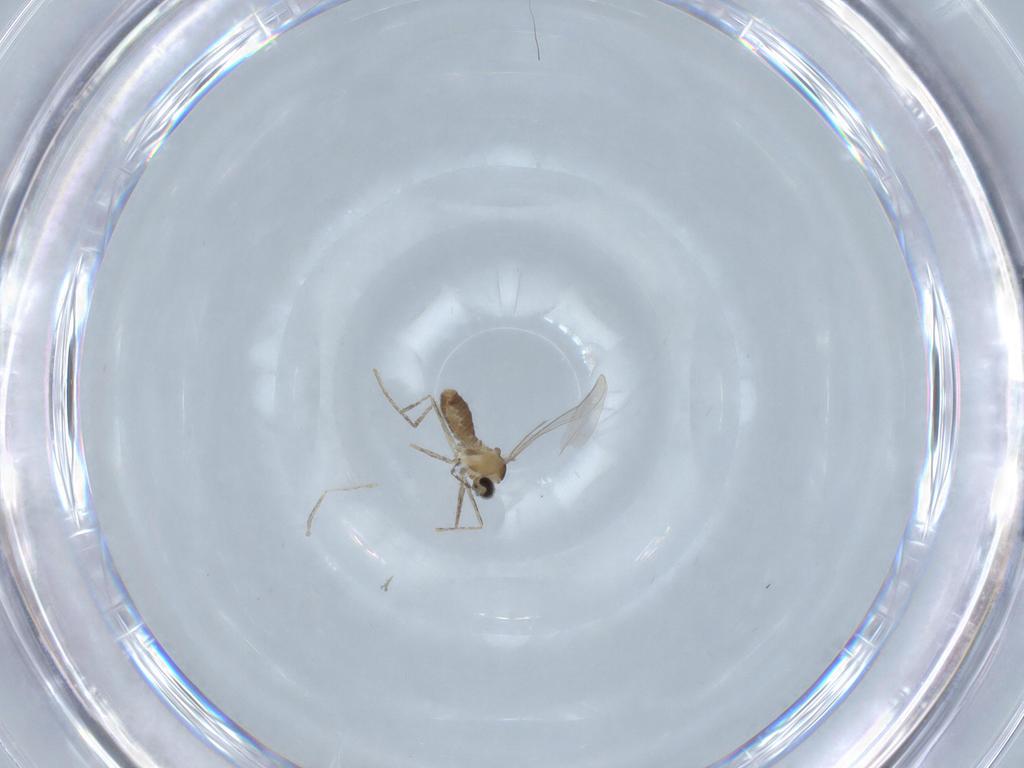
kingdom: Animalia
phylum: Arthropoda
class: Insecta
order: Diptera
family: Cecidomyiidae
